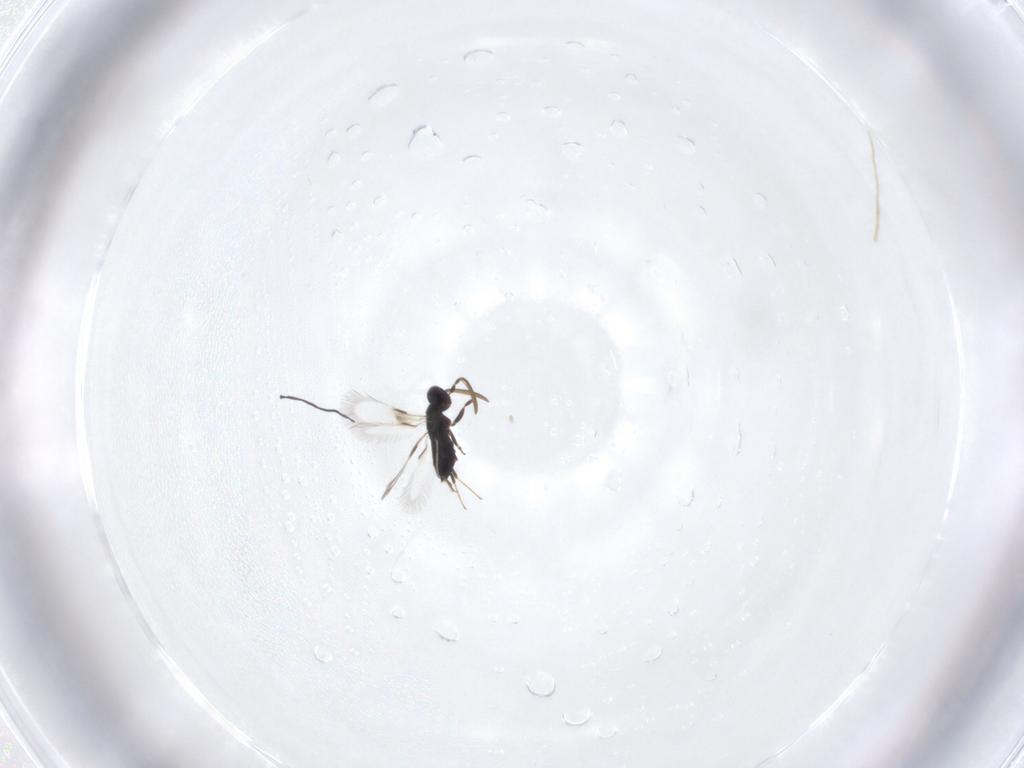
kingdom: Animalia
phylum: Arthropoda
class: Insecta
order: Hymenoptera
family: Signiphoridae
